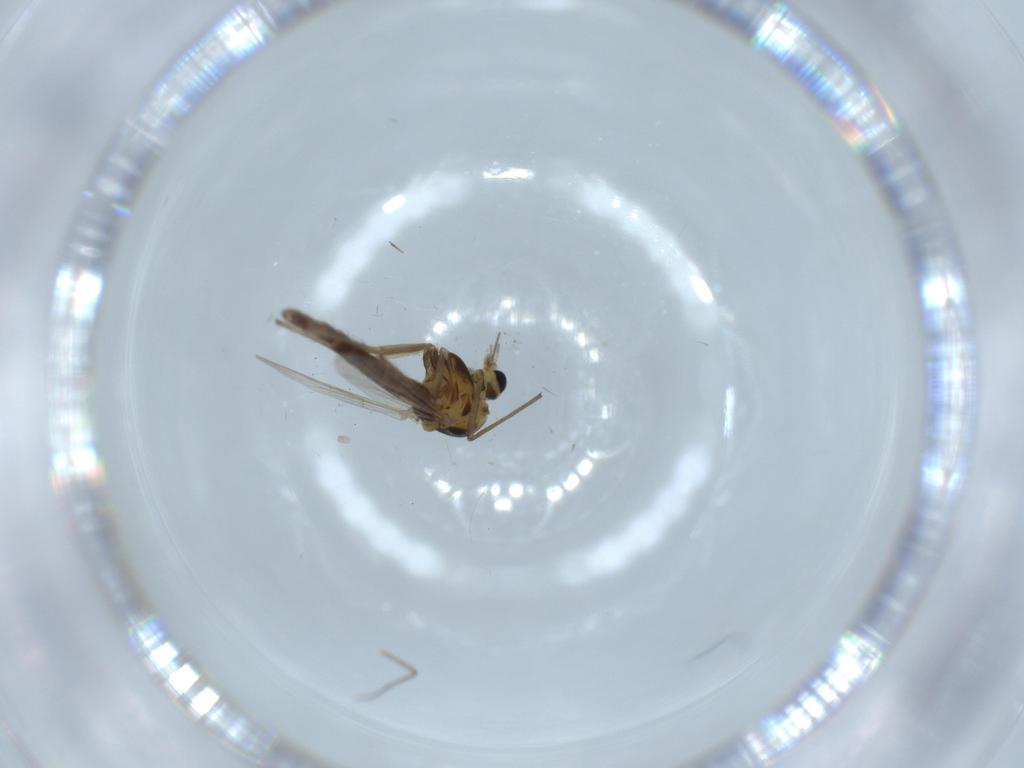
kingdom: Animalia
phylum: Arthropoda
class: Insecta
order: Diptera
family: Chironomidae
